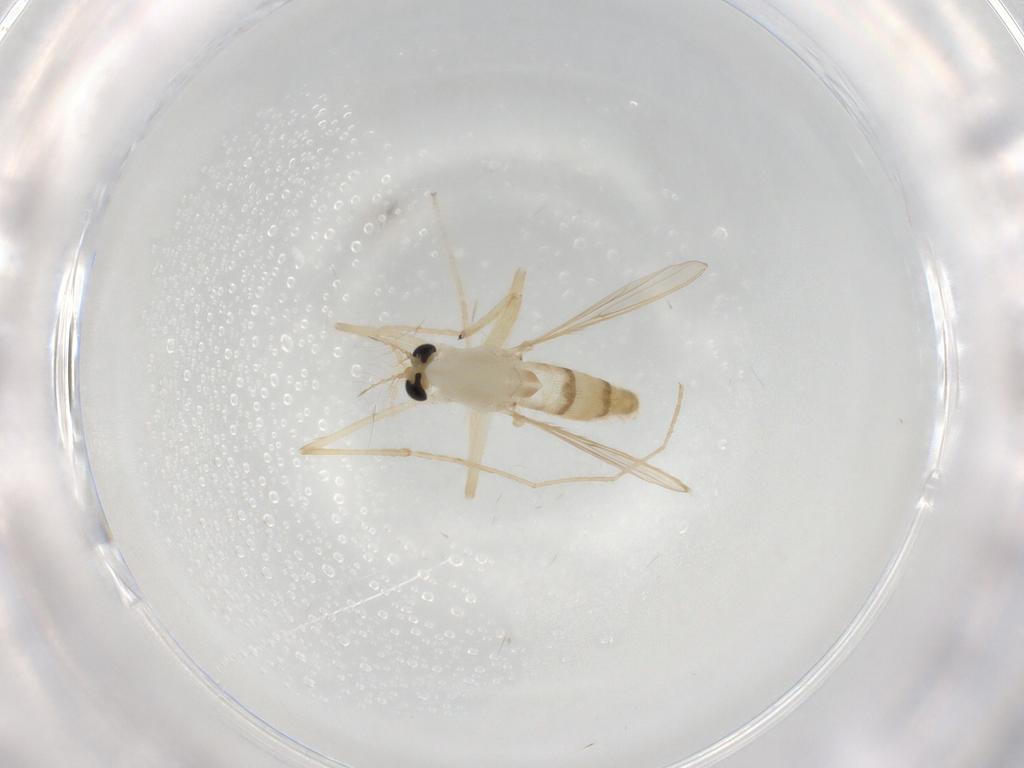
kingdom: Animalia
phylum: Arthropoda
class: Insecta
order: Diptera
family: Chironomidae
